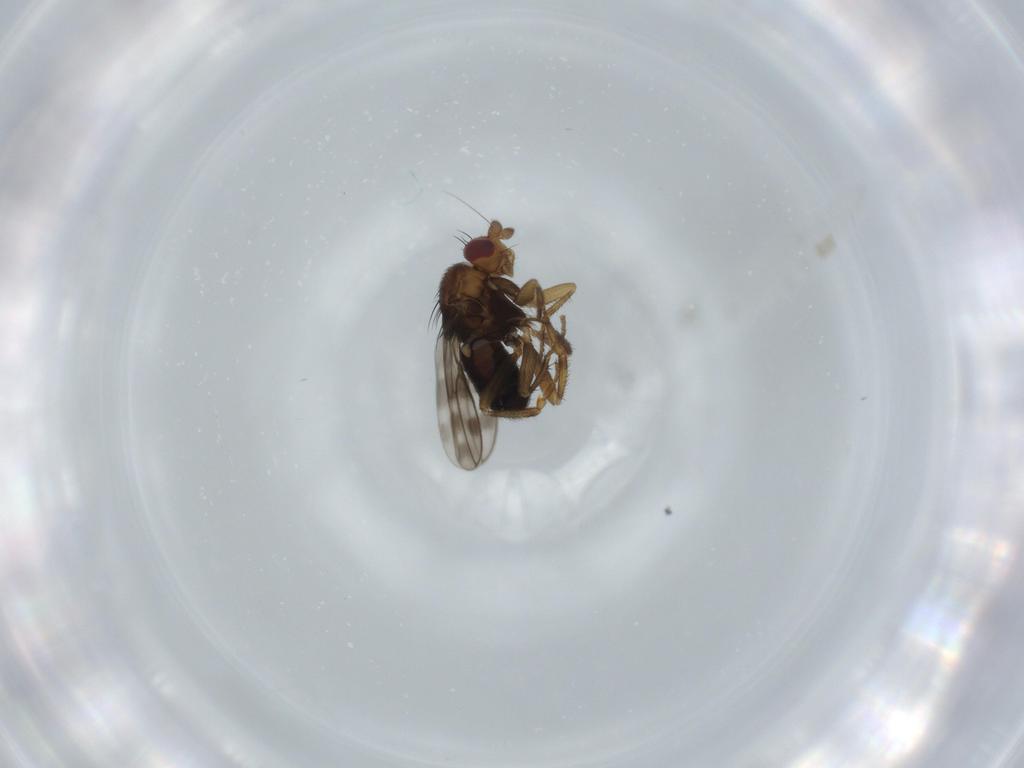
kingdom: Animalia
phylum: Arthropoda
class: Insecta
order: Diptera
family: Sphaeroceridae
